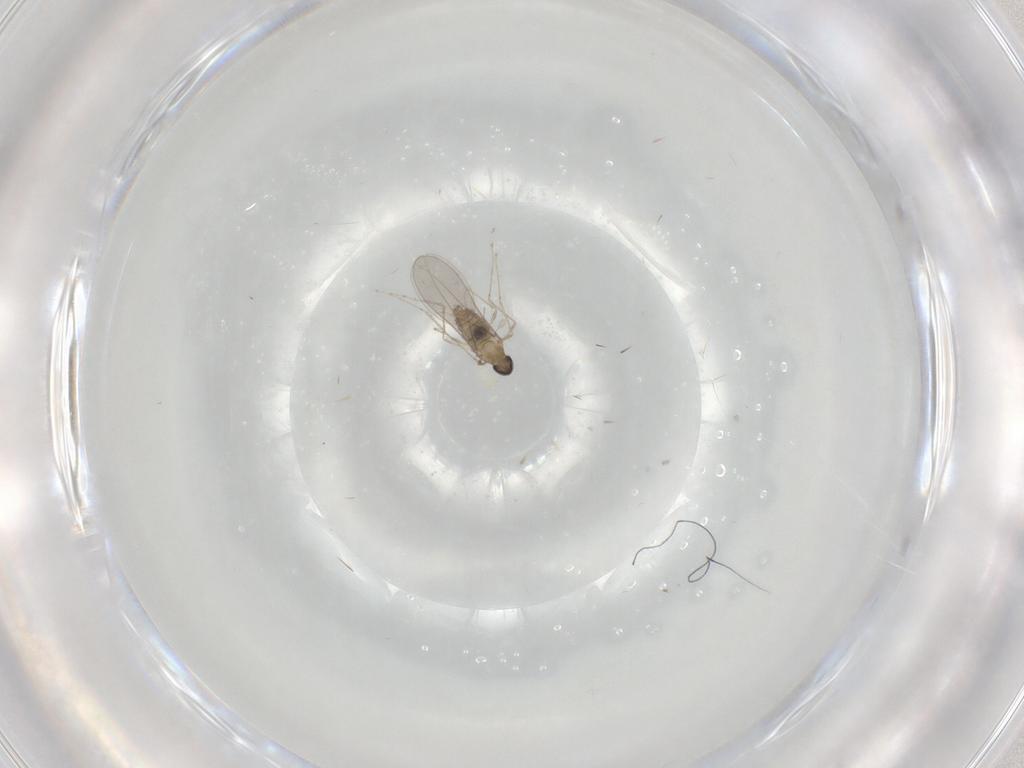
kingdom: Animalia
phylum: Arthropoda
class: Insecta
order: Diptera
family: Cecidomyiidae
